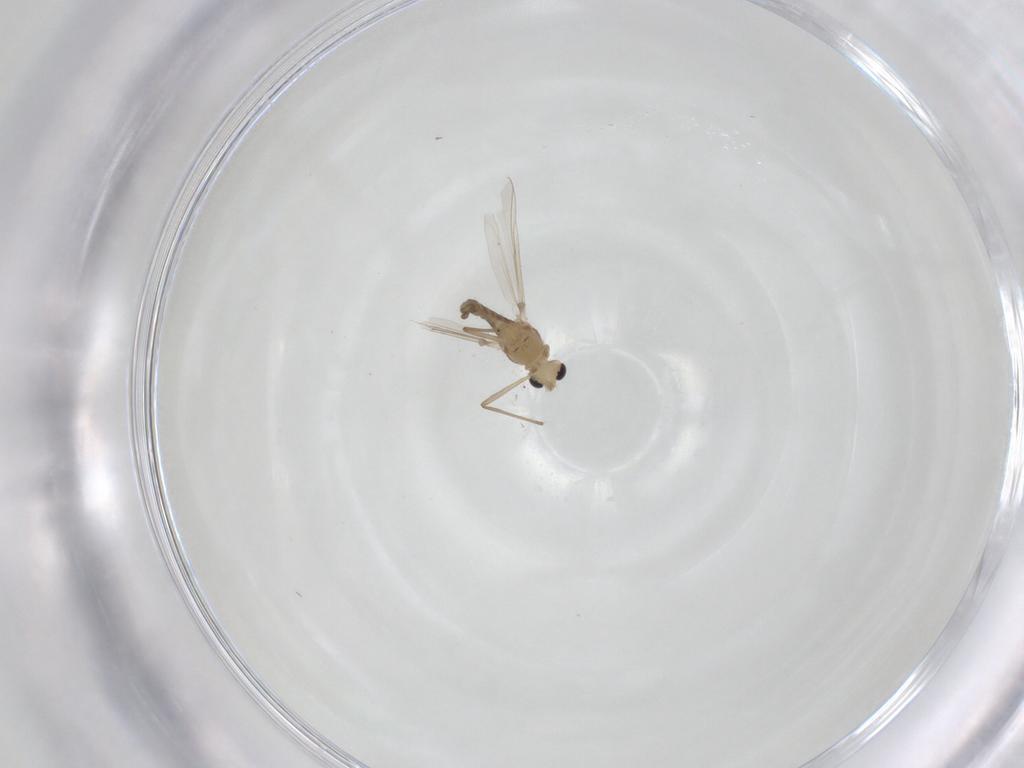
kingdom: Animalia
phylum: Arthropoda
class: Insecta
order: Diptera
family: Chironomidae
